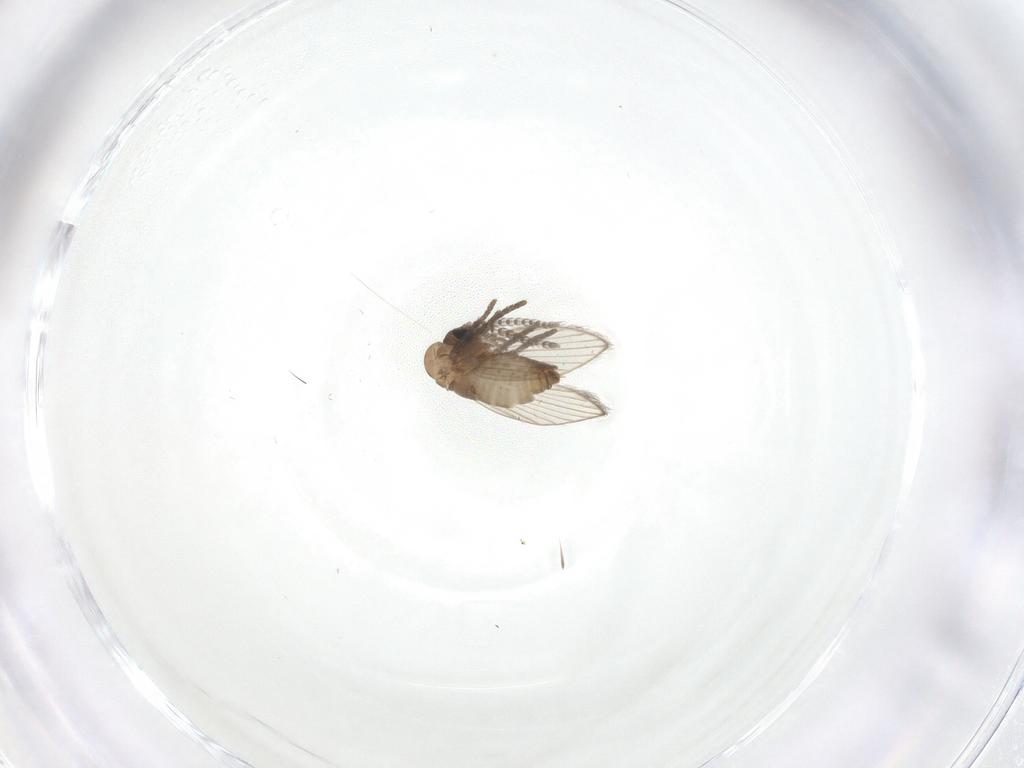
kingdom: Animalia
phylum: Arthropoda
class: Insecta
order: Diptera
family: Psychodidae
